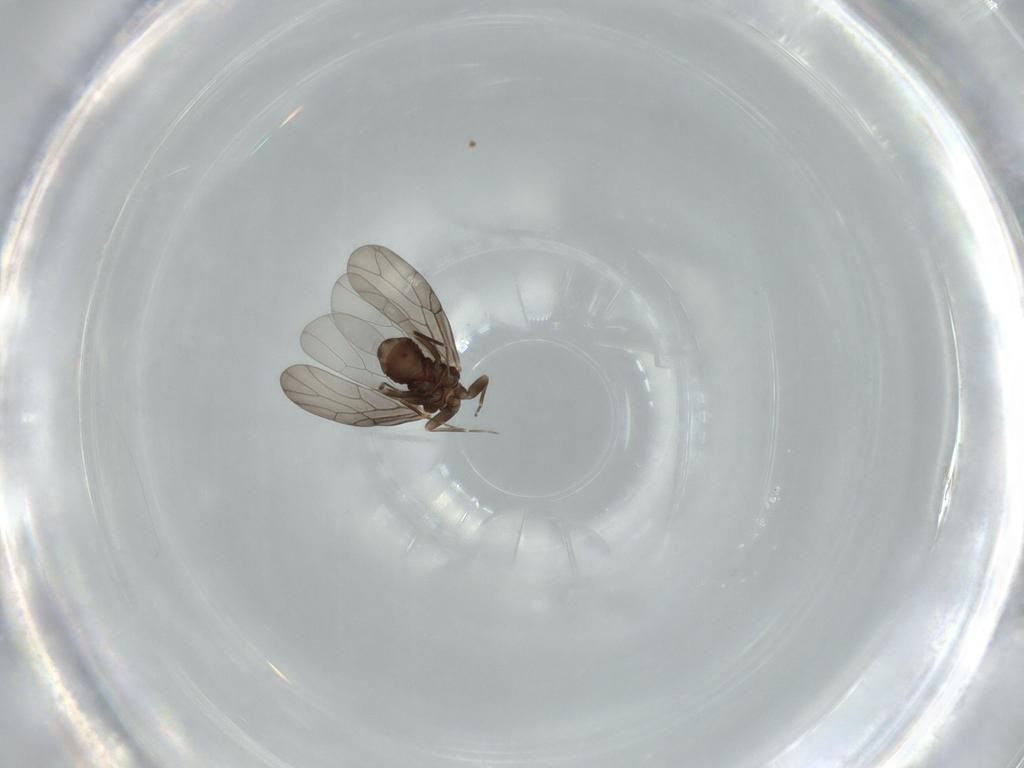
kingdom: Animalia
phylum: Arthropoda
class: Insecta
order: Psocodea
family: Lepidopsocidae
